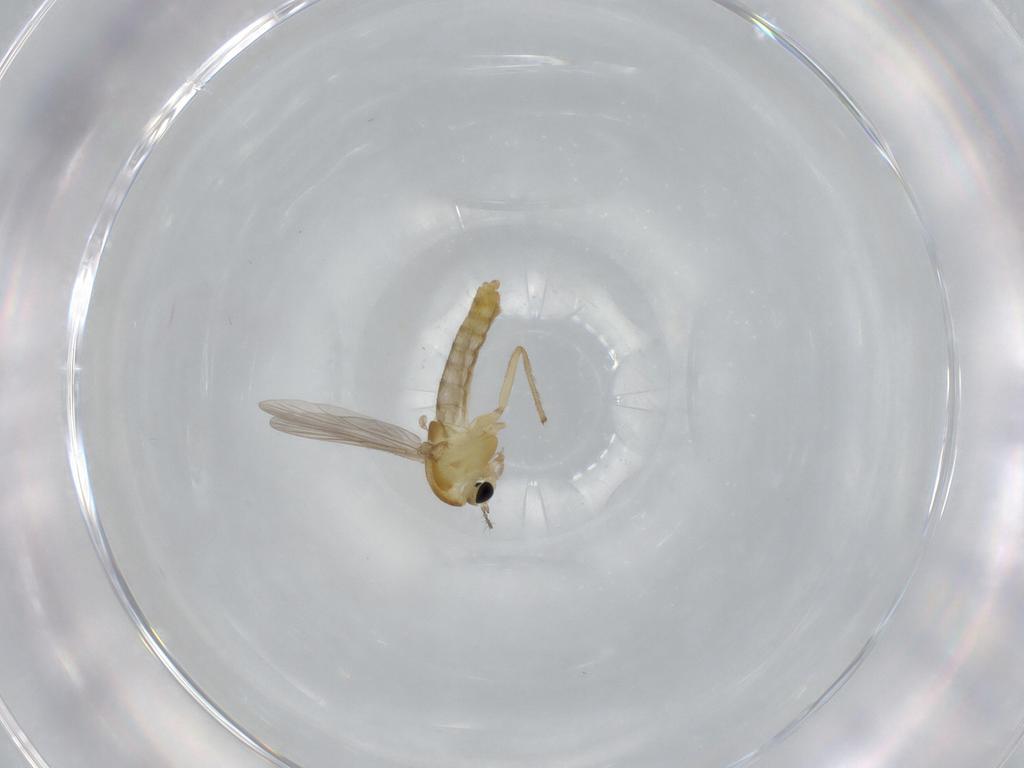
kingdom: Animalia
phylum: Arthropoda
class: Insecta
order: Diptera
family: Chironomidae
